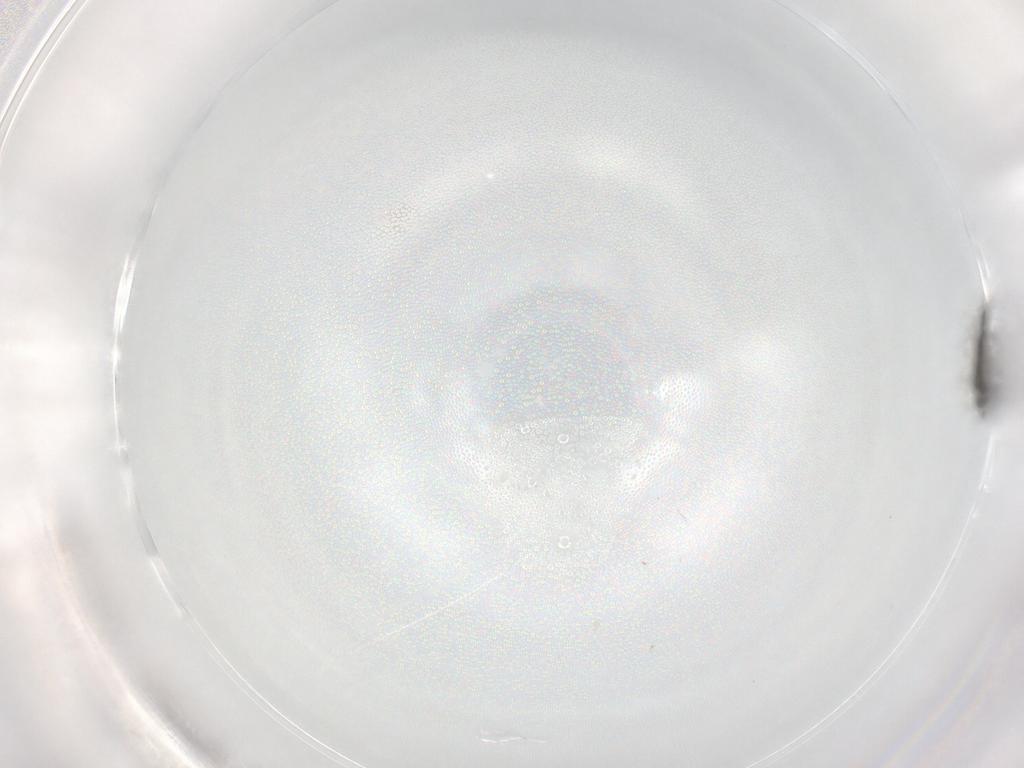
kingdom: Animalia
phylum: Arthropoda
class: Insecta
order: Diptera
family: Sciaridae
